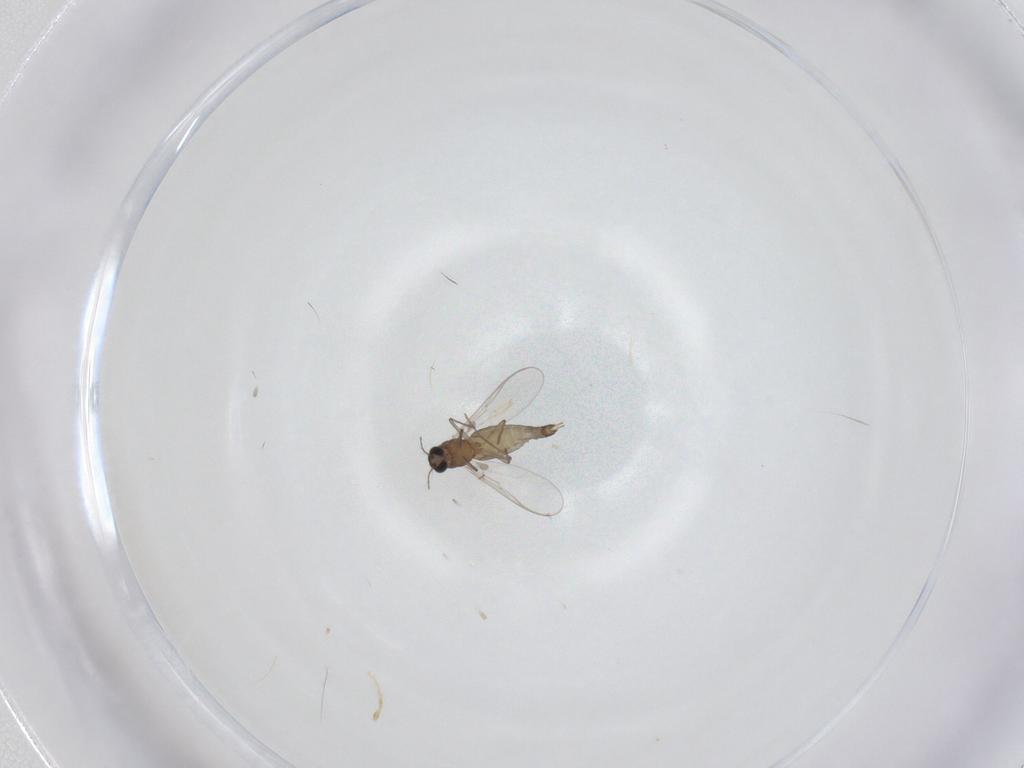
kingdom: Animalia
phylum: Arthropoda
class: Insecta
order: Diptera
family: Chironomidae
